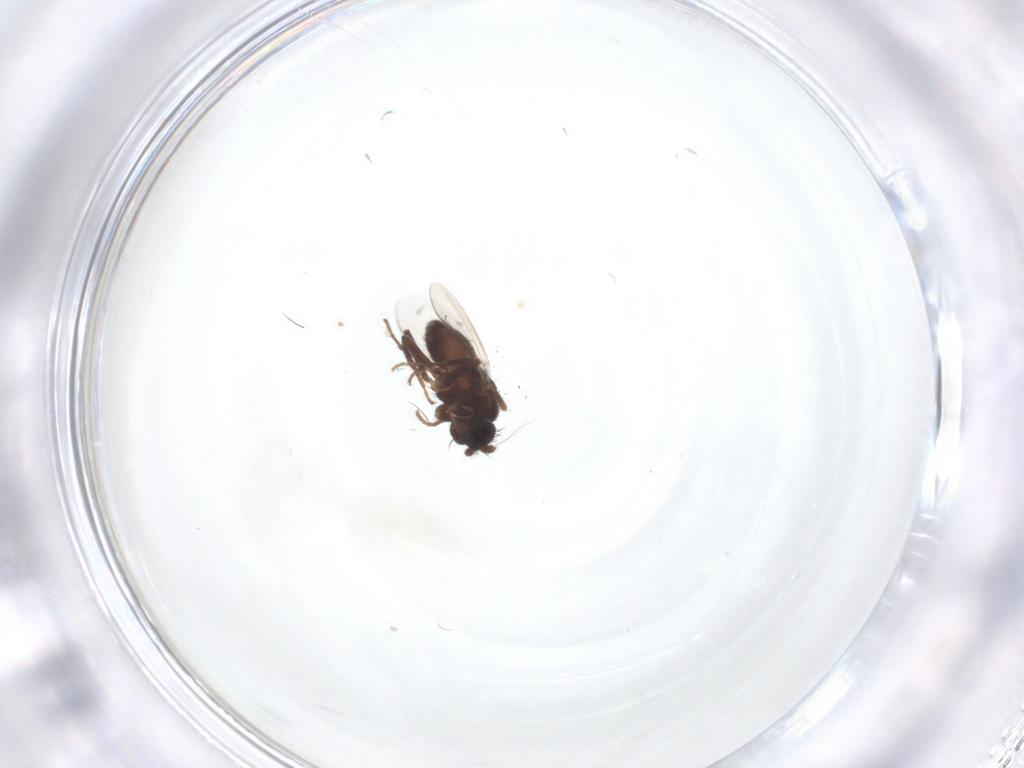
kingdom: Animalia
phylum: Arthropoda
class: Insecta
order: Diptera
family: Sphaeroceridae
